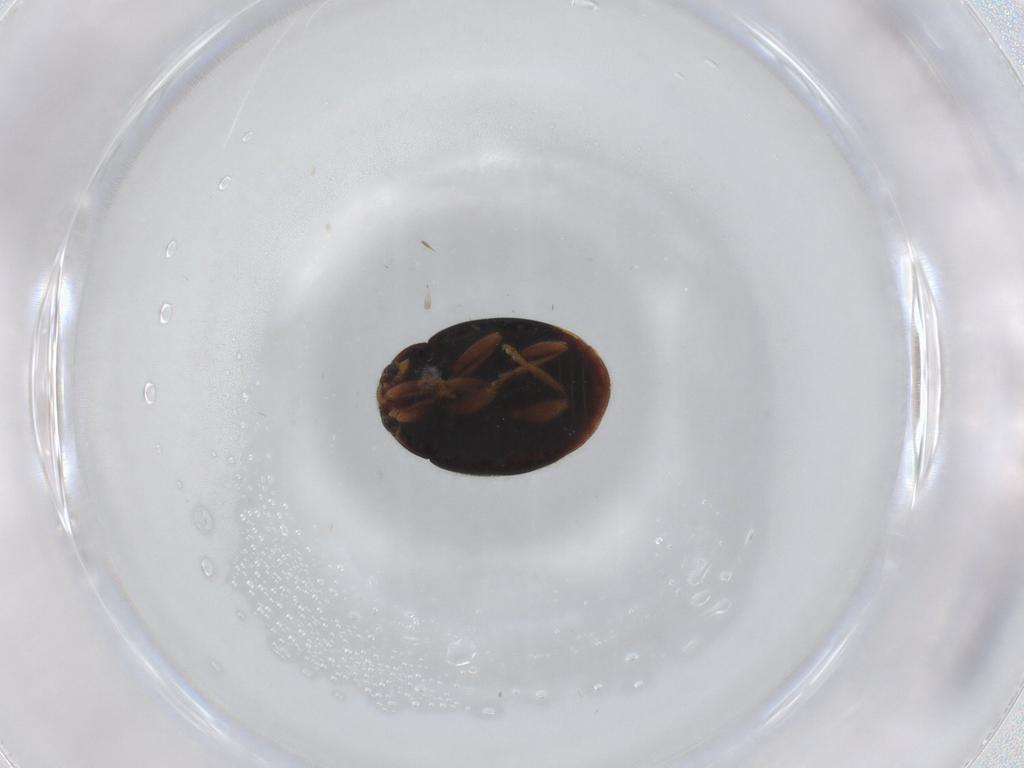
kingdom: Animalia
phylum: Arthropoda
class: Insecta
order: Coleoptera
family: Coccinellidae
